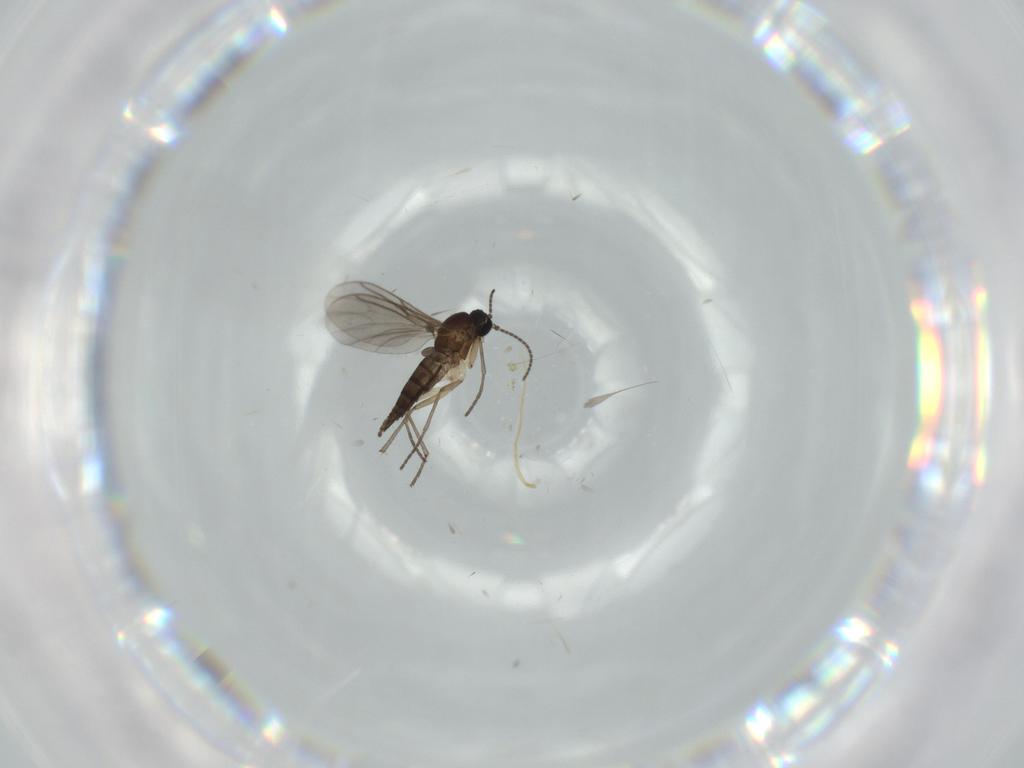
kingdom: Animalia
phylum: Arthropoda
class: Insecta
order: Diptera
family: Sciaridae
